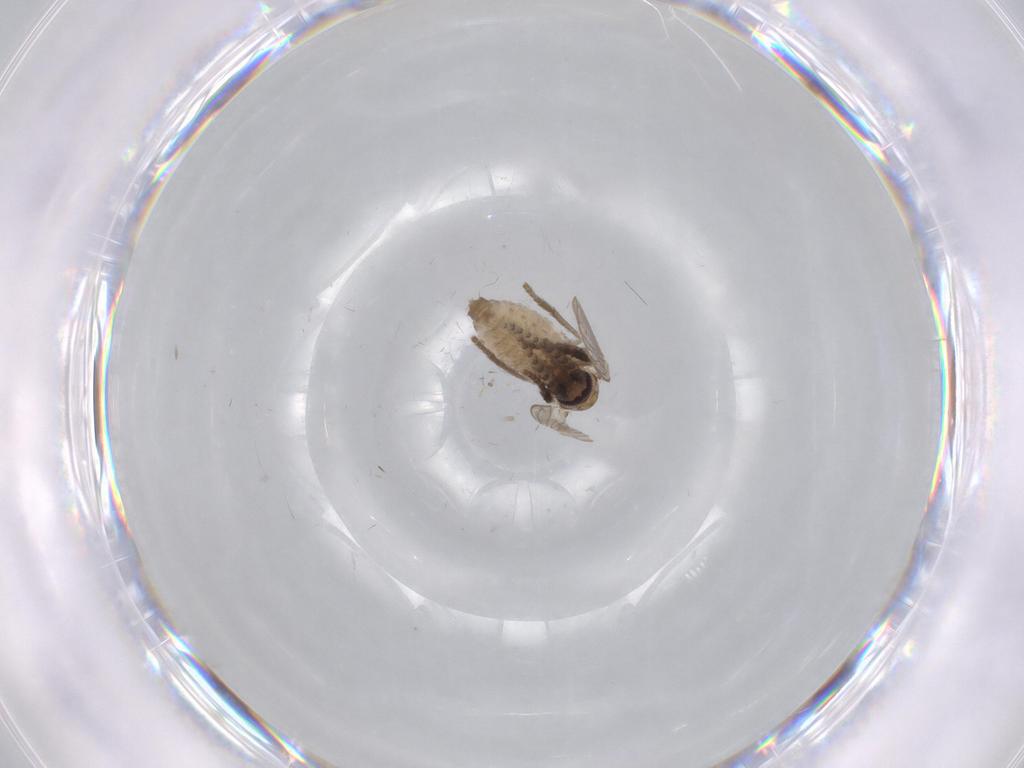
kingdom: Animalia
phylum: Arthropoda
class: Insecta
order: Diptera
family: Psychodidae
